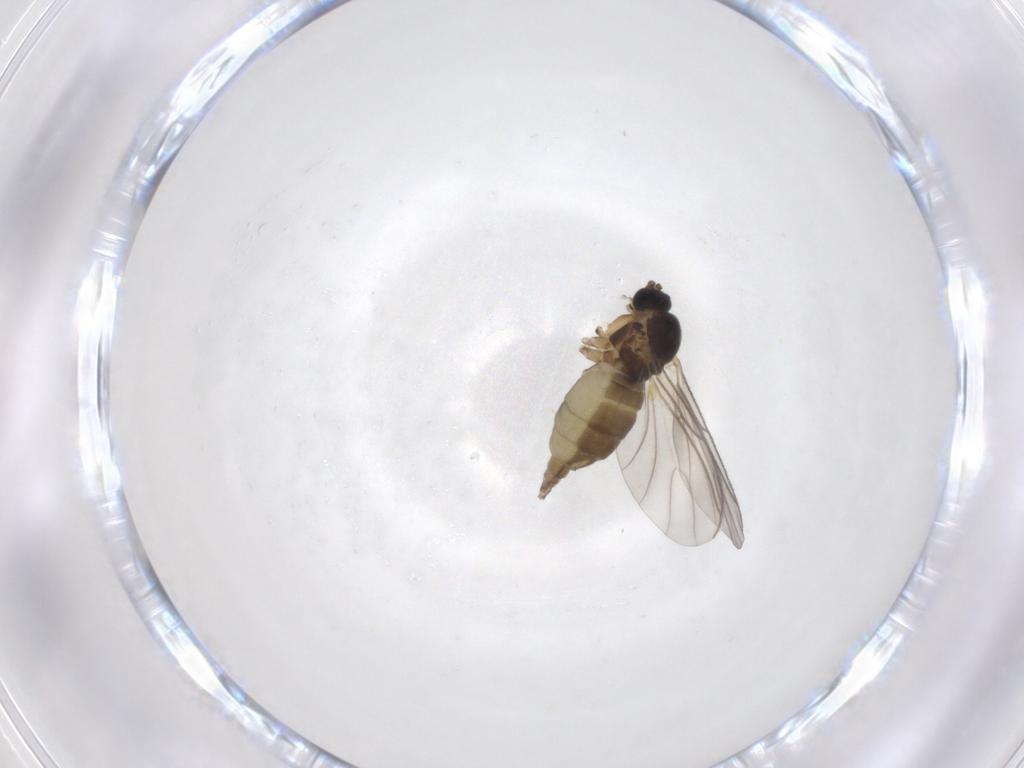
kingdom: Animalia
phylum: Arthropoda
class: Insecta
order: Diptera
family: Sciaridae
